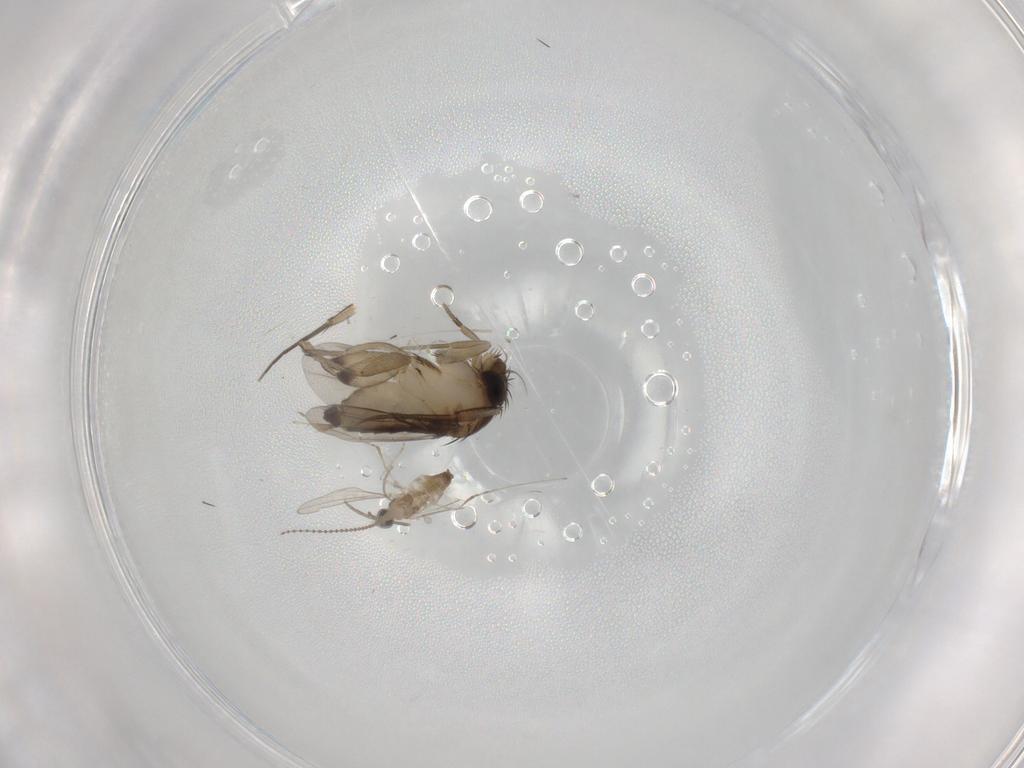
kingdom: Animalia
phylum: Arthropoda
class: Insecta
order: Diptera
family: Phoridae
